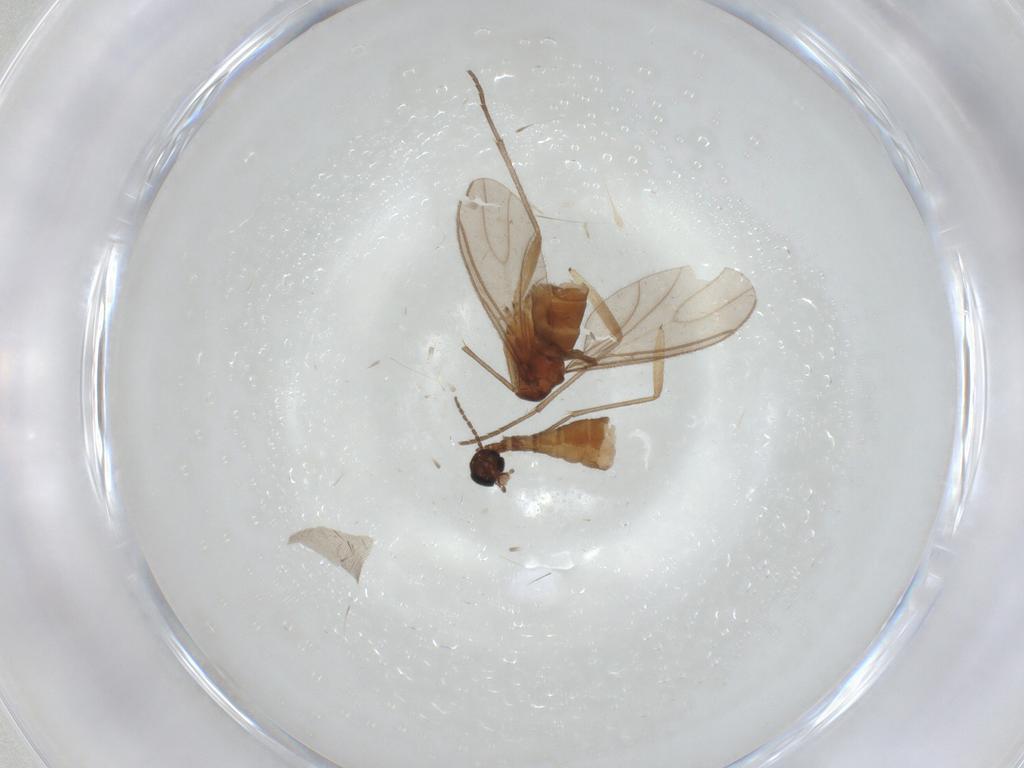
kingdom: Animalia
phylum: Arthropoda
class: Insecta
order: Diptera
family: Sciaridae
